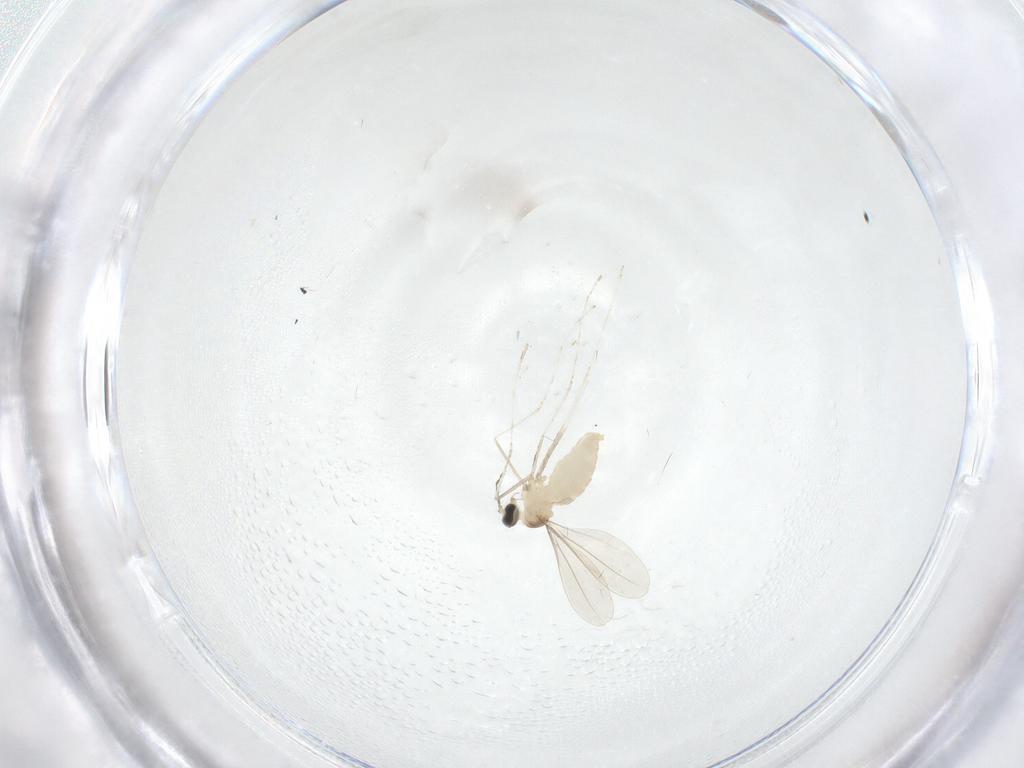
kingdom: Animalia
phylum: Arthropoda
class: Insecta
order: Diptera
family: Cecidomyiidae
